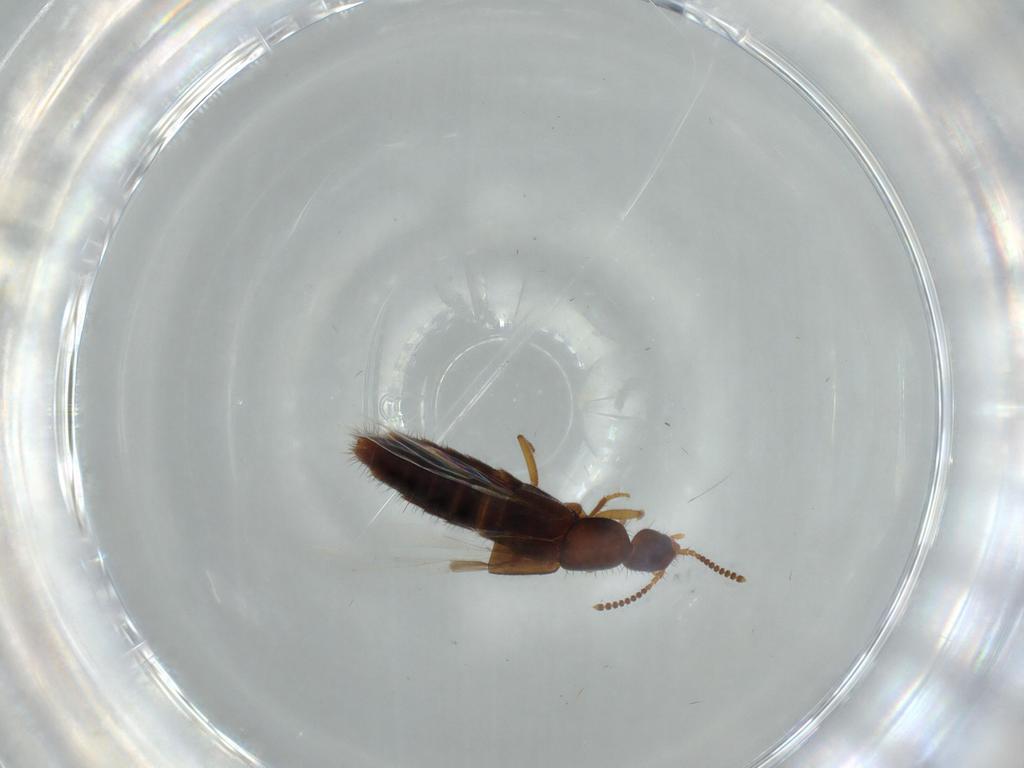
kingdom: Animalia
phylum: Arthropoda
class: Insecta
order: Coleoptera
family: Staphylinidae
